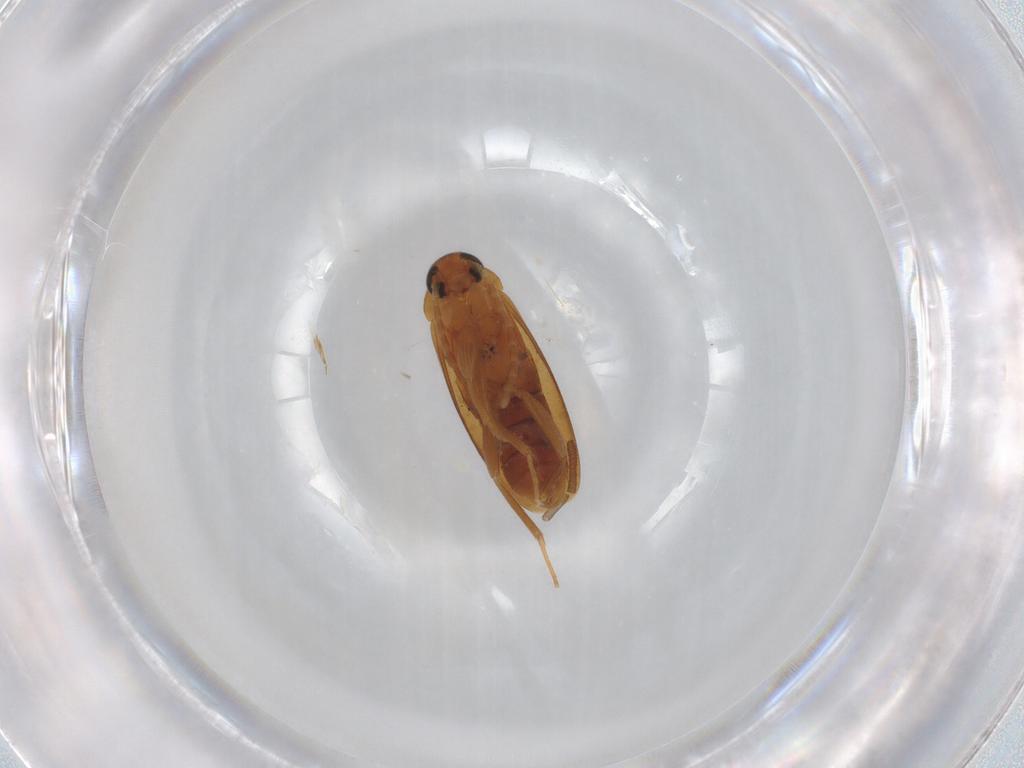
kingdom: Animalia
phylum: Arthropoda
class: Insecta
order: Coleoptera
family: Scraptiidae
